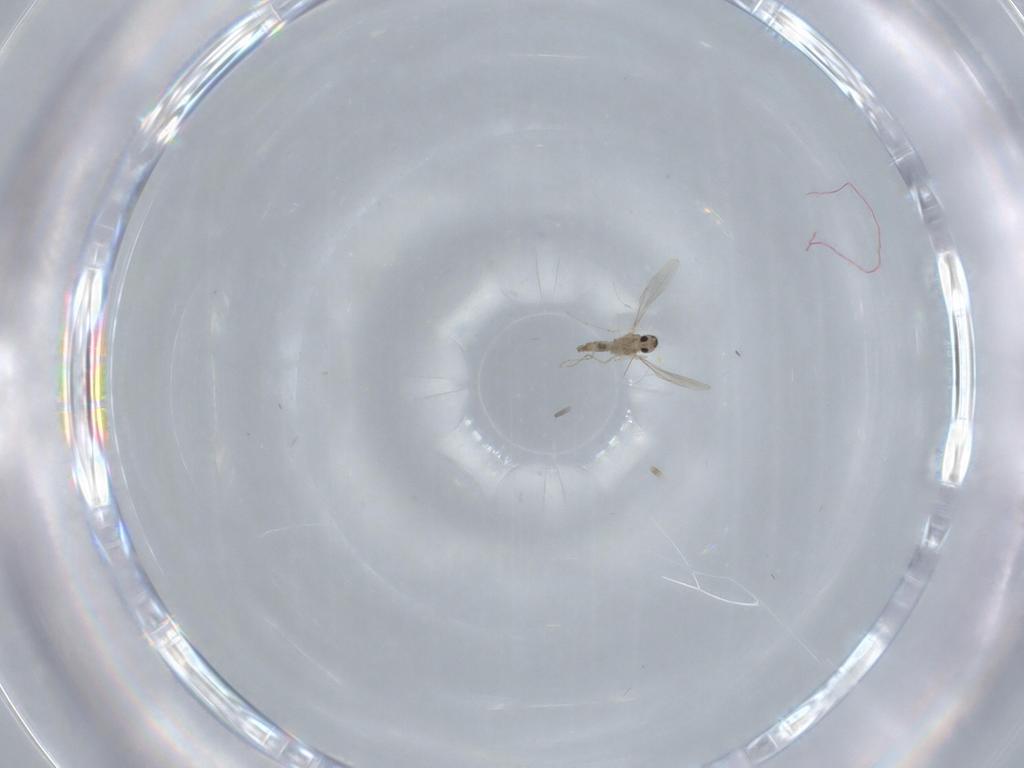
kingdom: Animalia
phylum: Arthropoda
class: Insecta
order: Diptera
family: Cecidomyiidae
